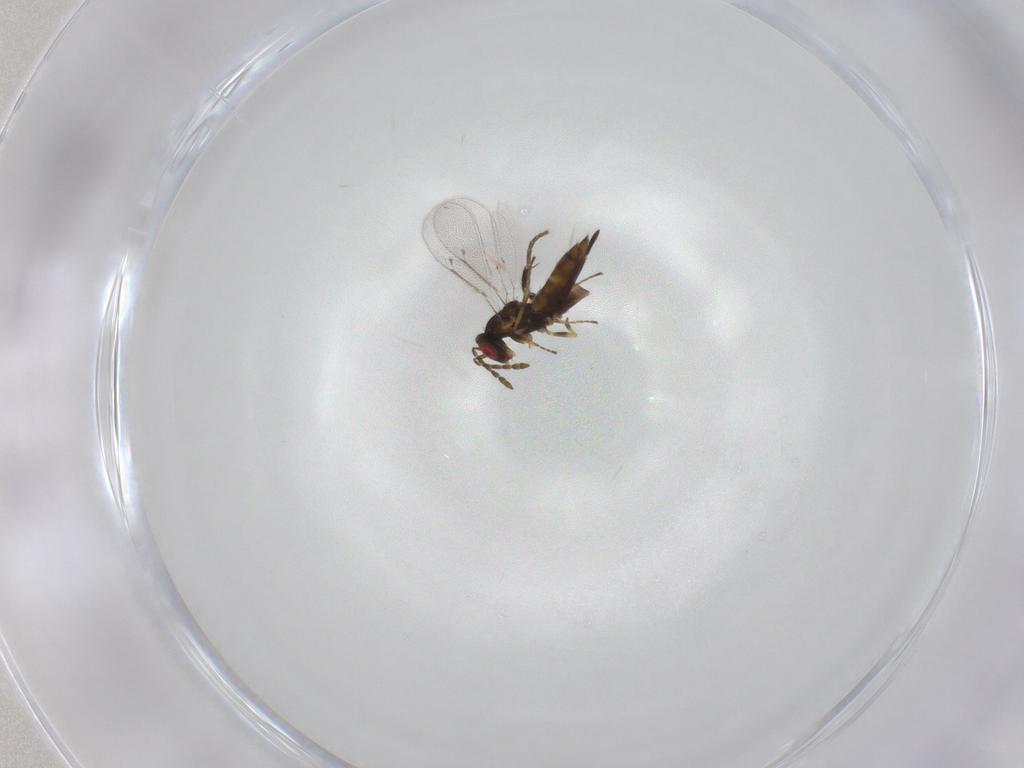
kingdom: Animalia
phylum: Arthropoda
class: Insecta
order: Hymenoptera
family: Eulophidae
